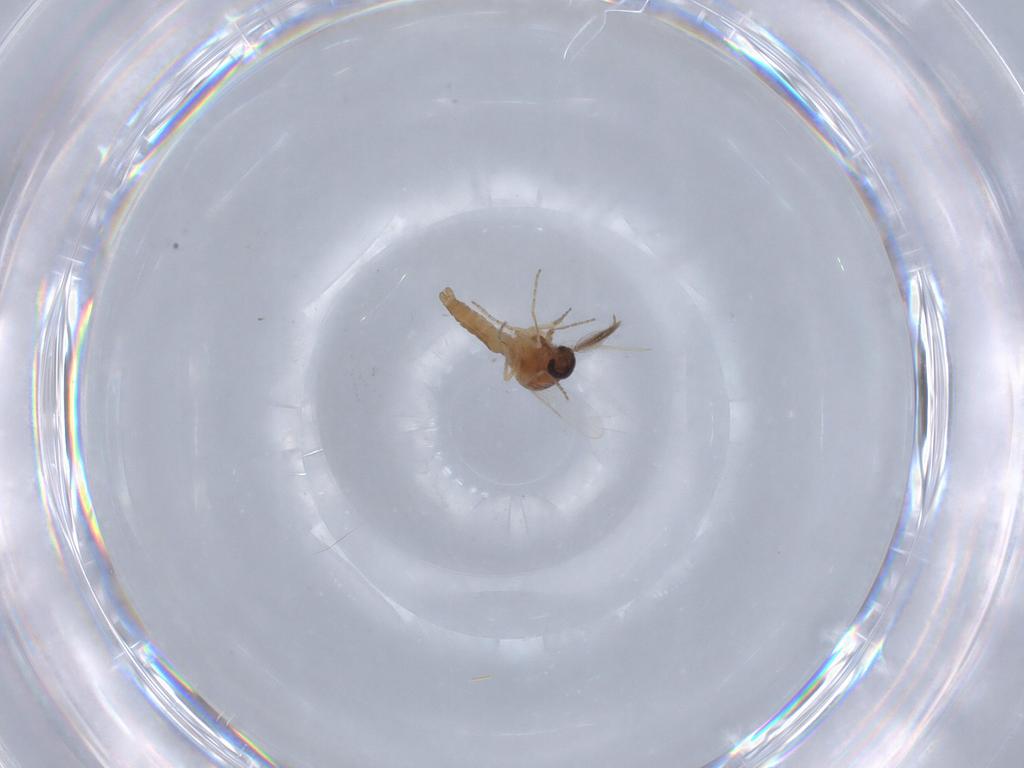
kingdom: Animalia
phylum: Arthropoda
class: Insecta
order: Diptera
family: Ceratopogonidae
